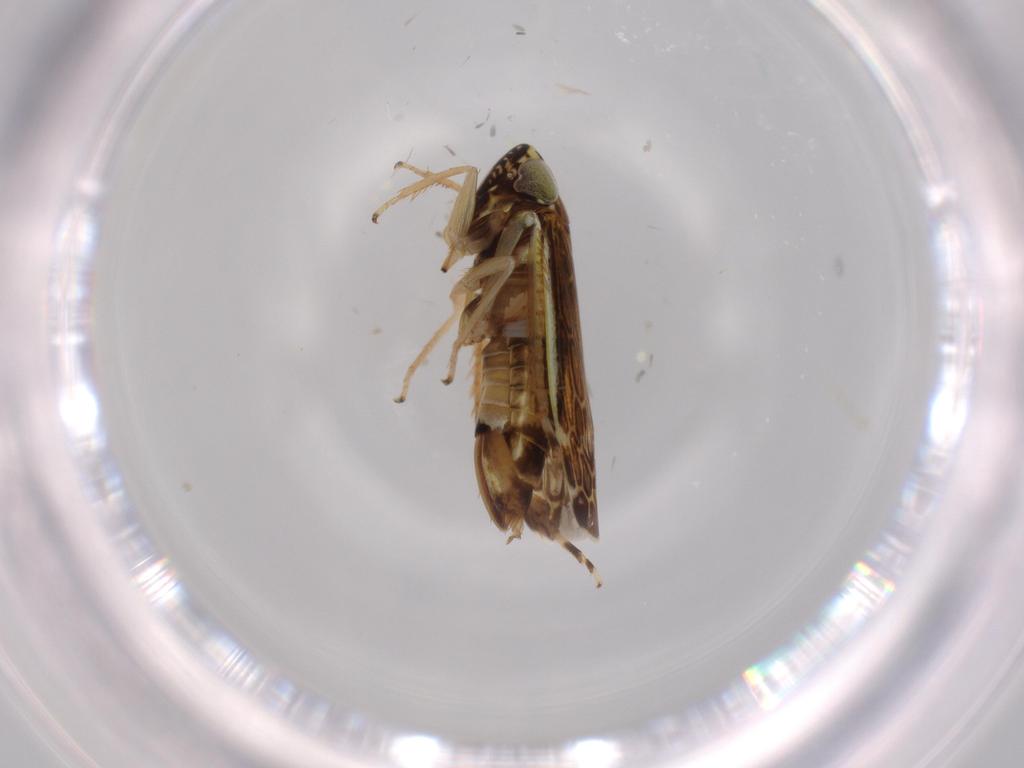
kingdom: Animalia
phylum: Arthropoda
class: Insecta
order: Hemiptera
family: Cicadellidae
